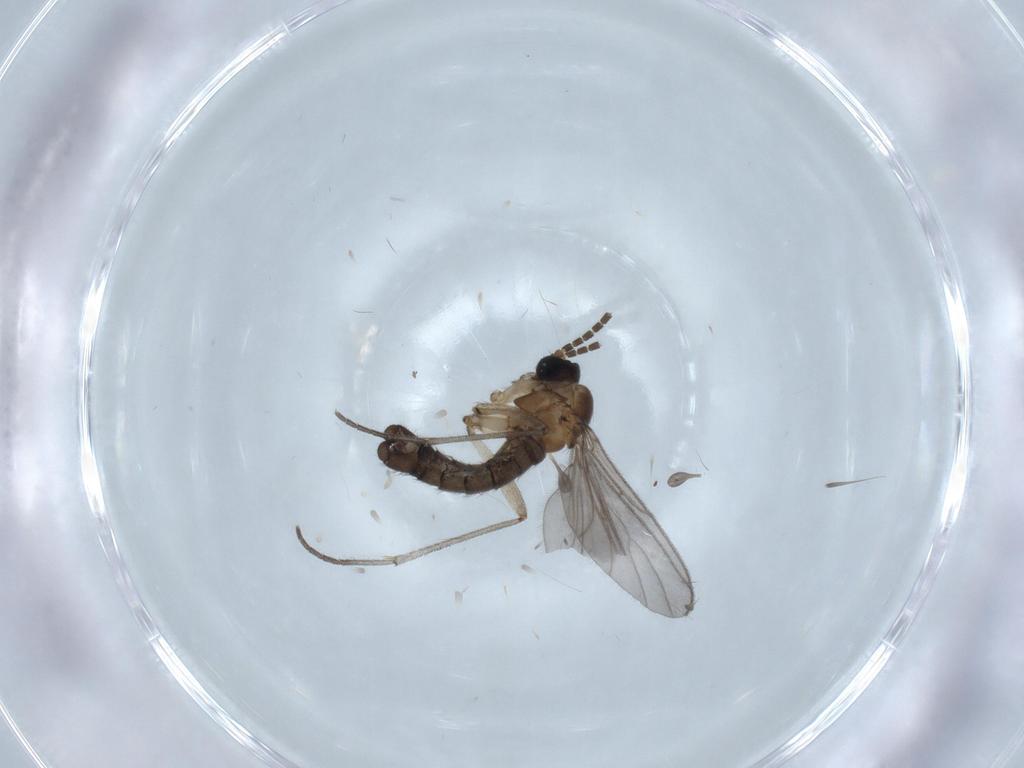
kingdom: Animalia
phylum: Arthropoda
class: Insecta
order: Diptera
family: Sciaridae
